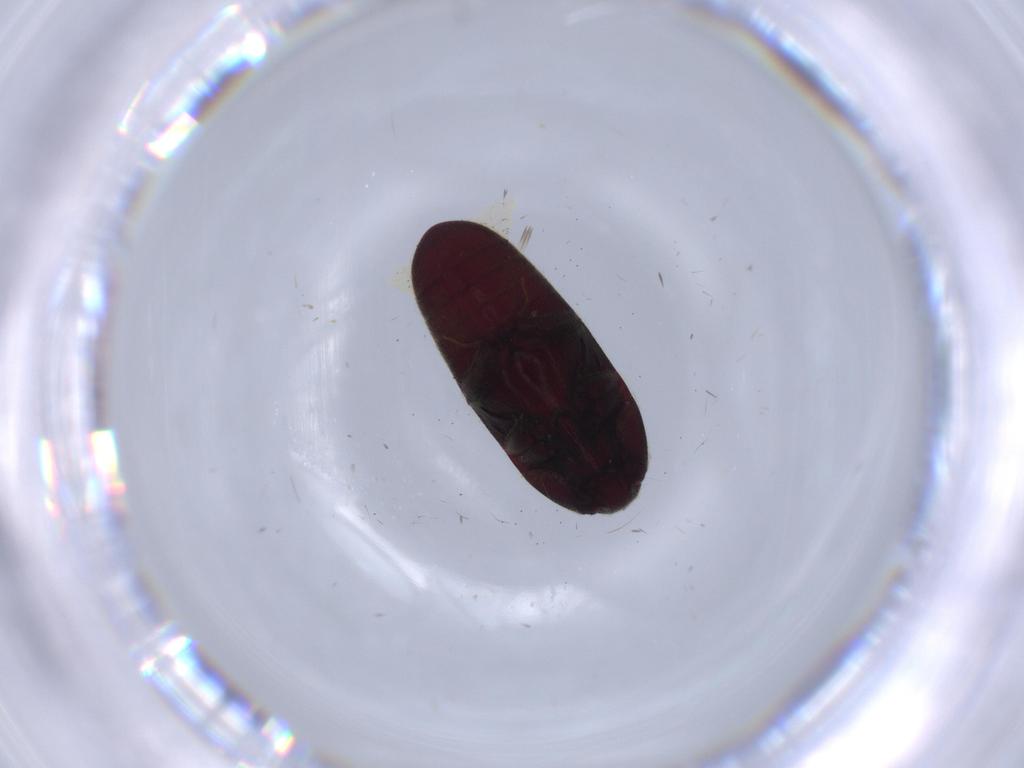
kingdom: Animalia
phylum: Arthropoda
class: Insecta
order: Coleoptera
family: Throscidae
